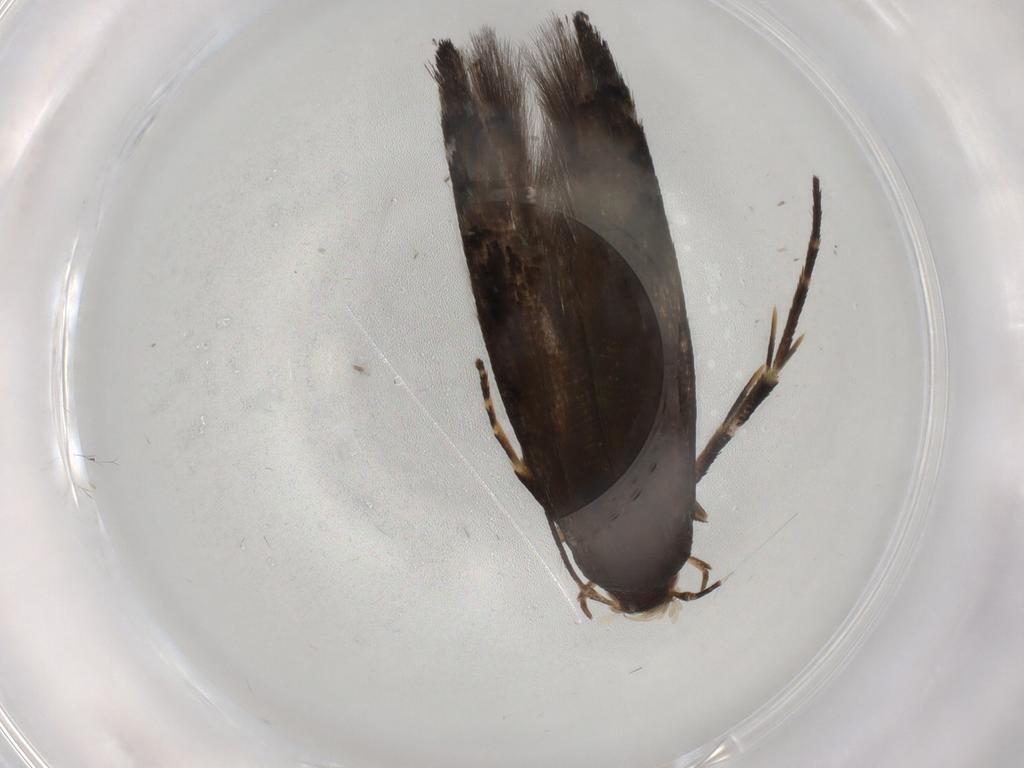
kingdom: Animalia
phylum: Arthropoda
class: Insecta
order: Lepidoptera
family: Momphidae
